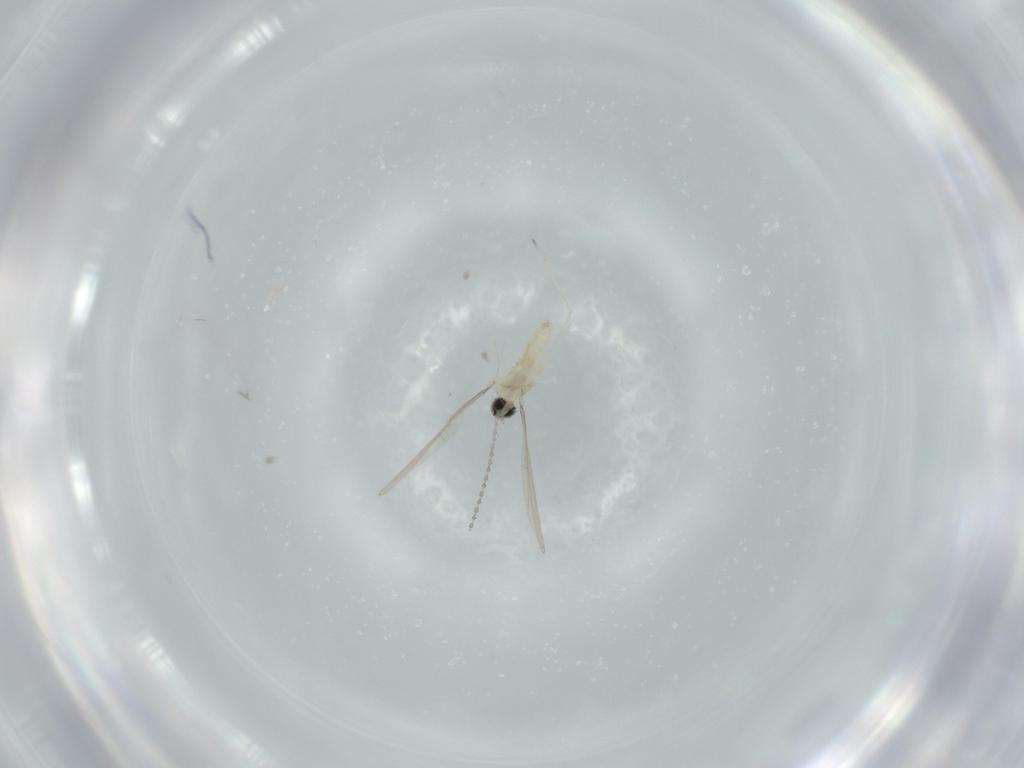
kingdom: Animalia
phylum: Arthropoda
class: Insecta
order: Diptera
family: Cecidomyiidae
